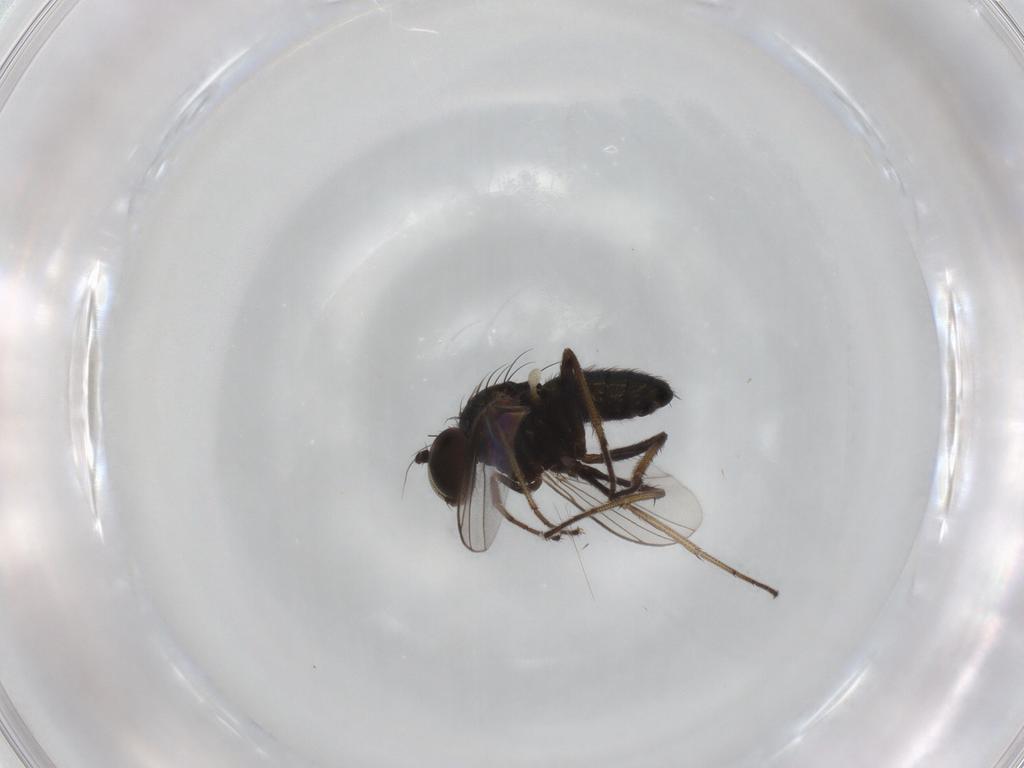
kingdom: Animalia
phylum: Arthropoda
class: Insecta
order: Diptera
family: Dolichopodidae
